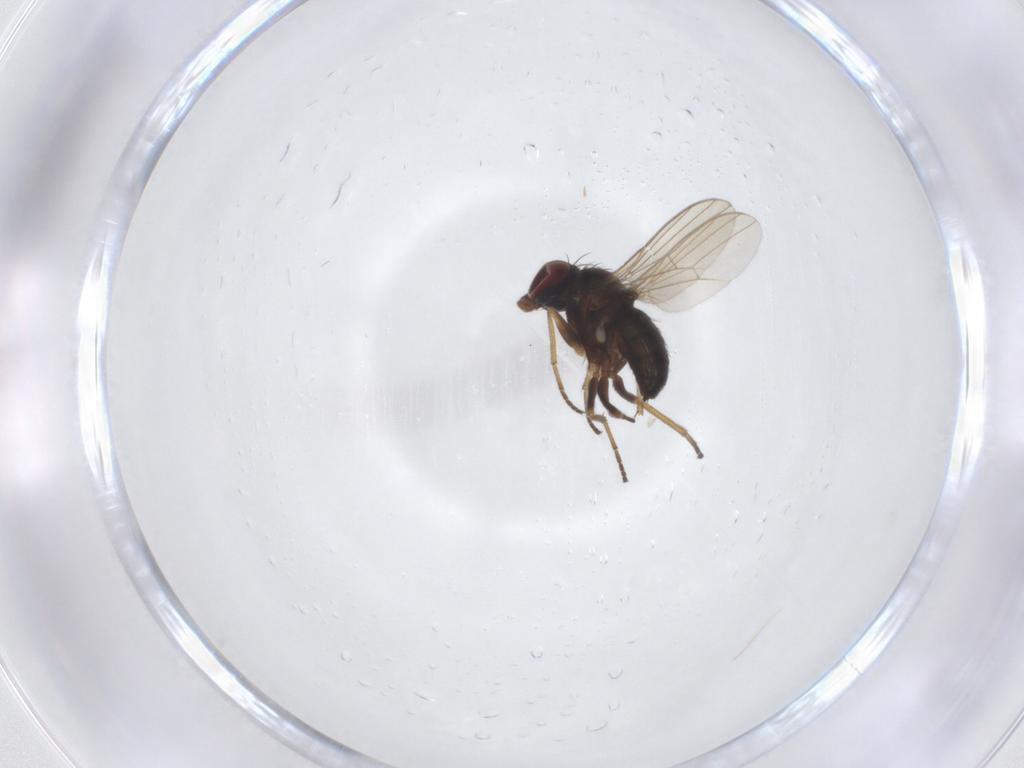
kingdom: Animalia
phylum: Arthropoda
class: Insecta
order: Diptera
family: Dolichopodidae
